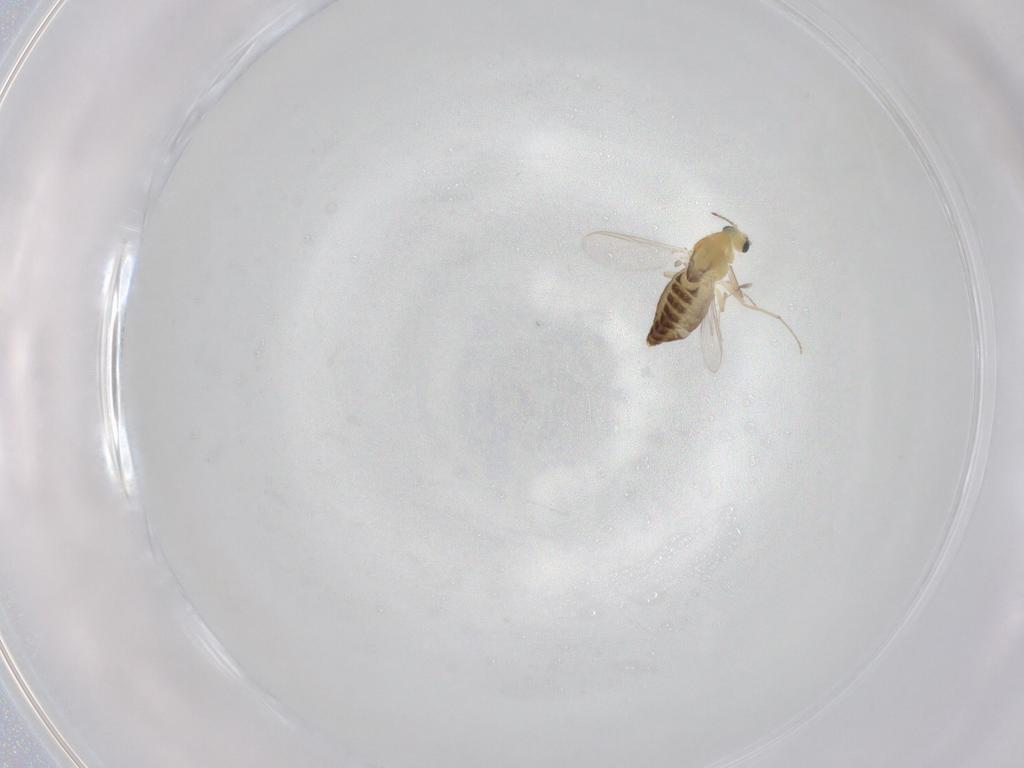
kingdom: Animalia
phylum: Arthropoda
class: Insecta
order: Diptera
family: Chironomidae
